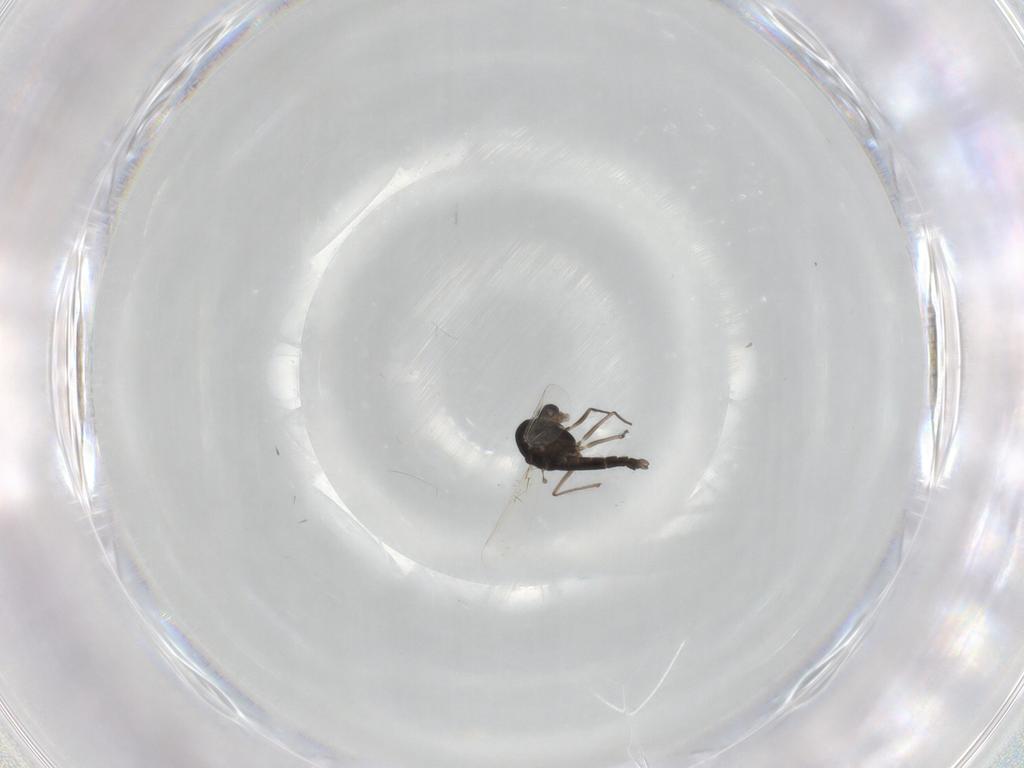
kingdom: Animalia
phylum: Arthropoda
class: Insecta
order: Diptera
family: Chironomidae
